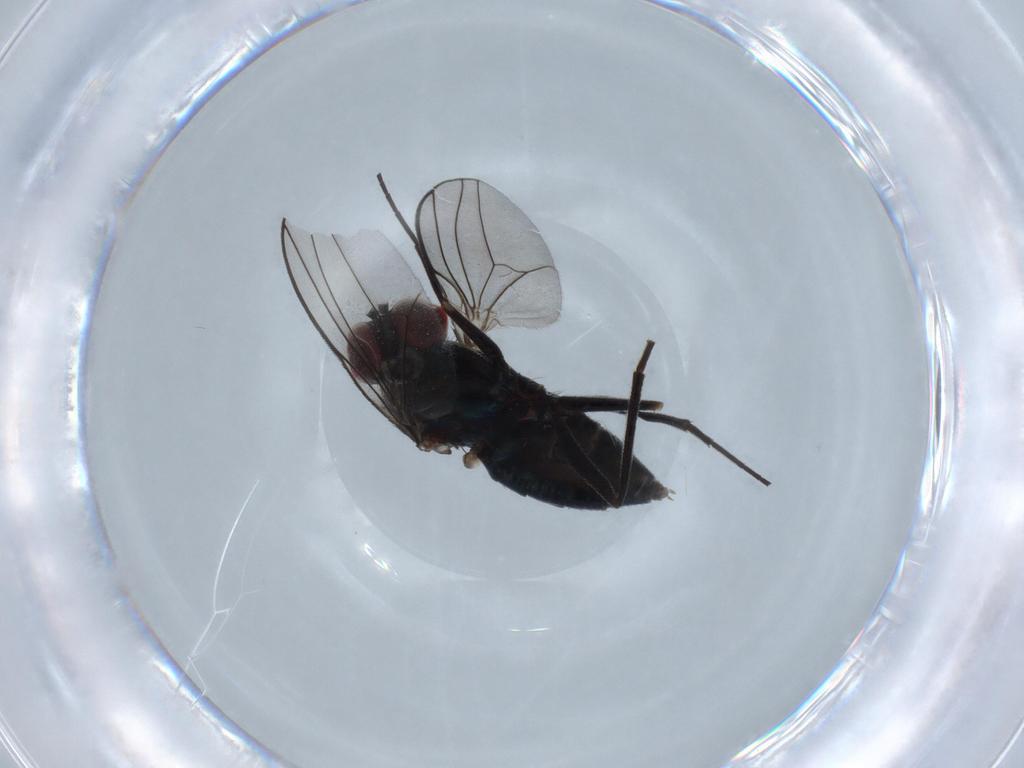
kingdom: Animalia
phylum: Arthropoda
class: Insecta
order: Diptera
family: Dolichopodidae
